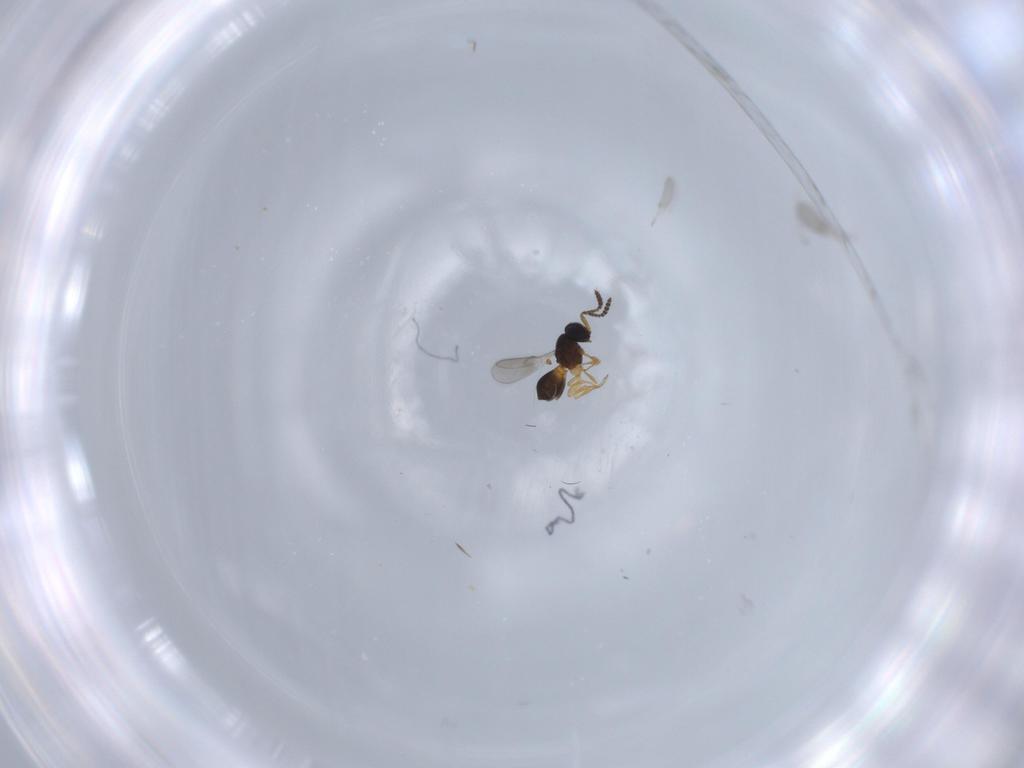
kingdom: Animalia
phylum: Arthropoda
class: Insecta
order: Hymenoptera
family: Scelionidae
